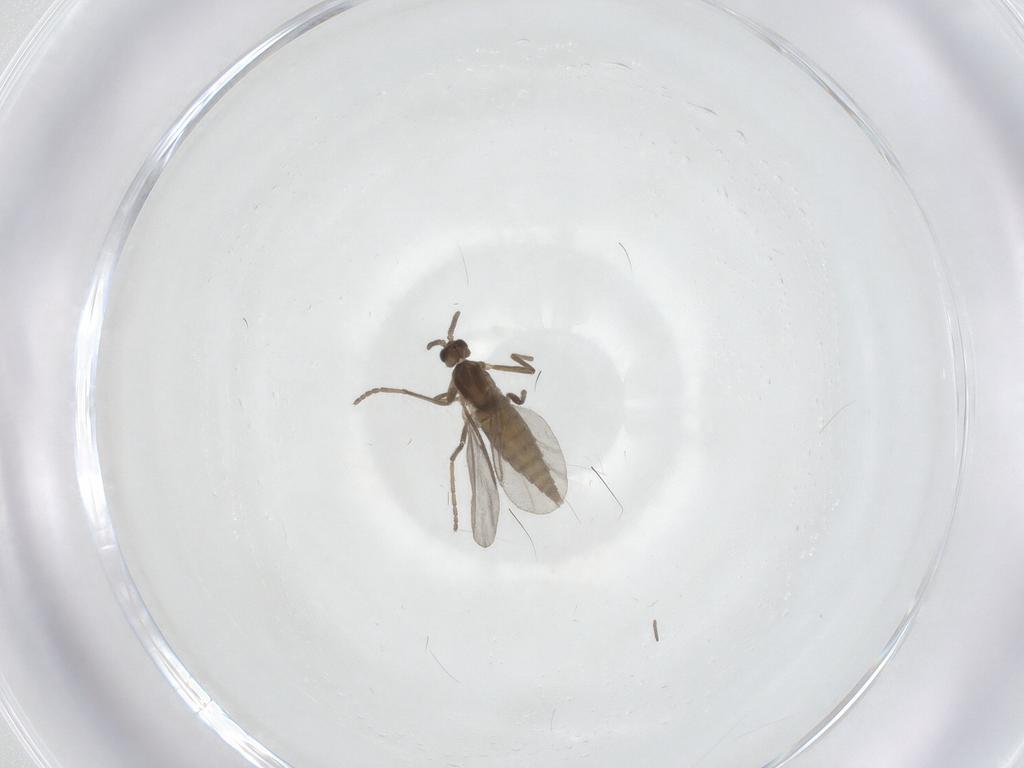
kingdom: Animalia
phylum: Arthropoda
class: Insecta
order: Diptera
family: Cecidomyiidae
